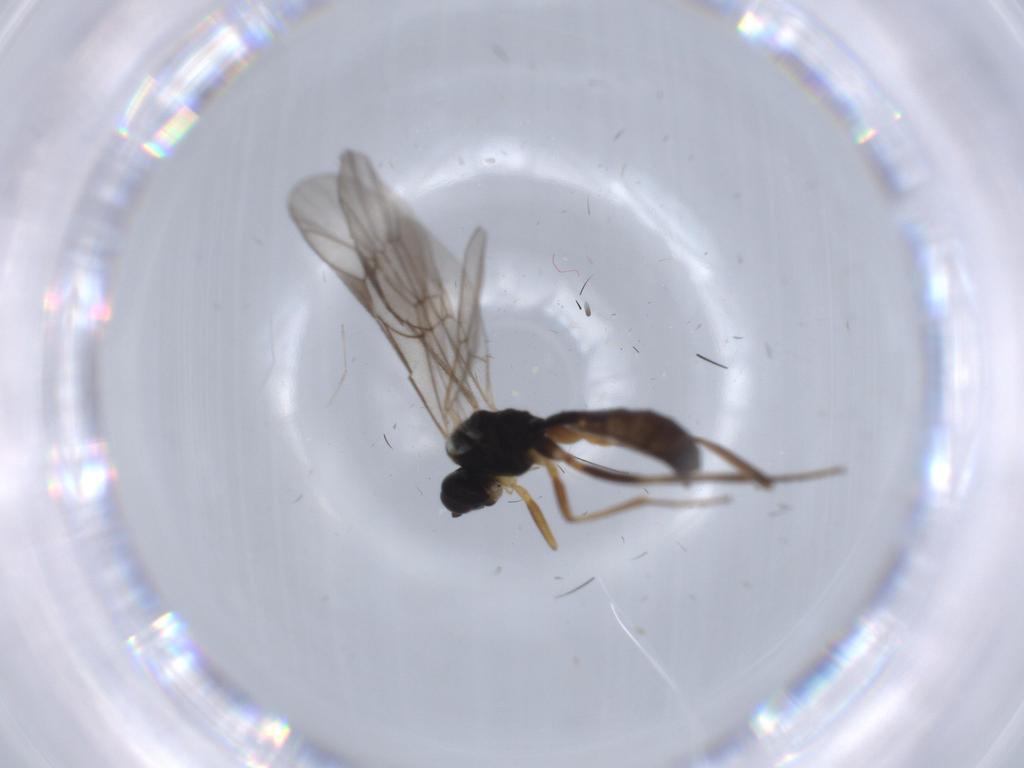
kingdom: Animalia
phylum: Arthropoda
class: Insecta
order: Hymenoptera
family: Ichneumonidae
